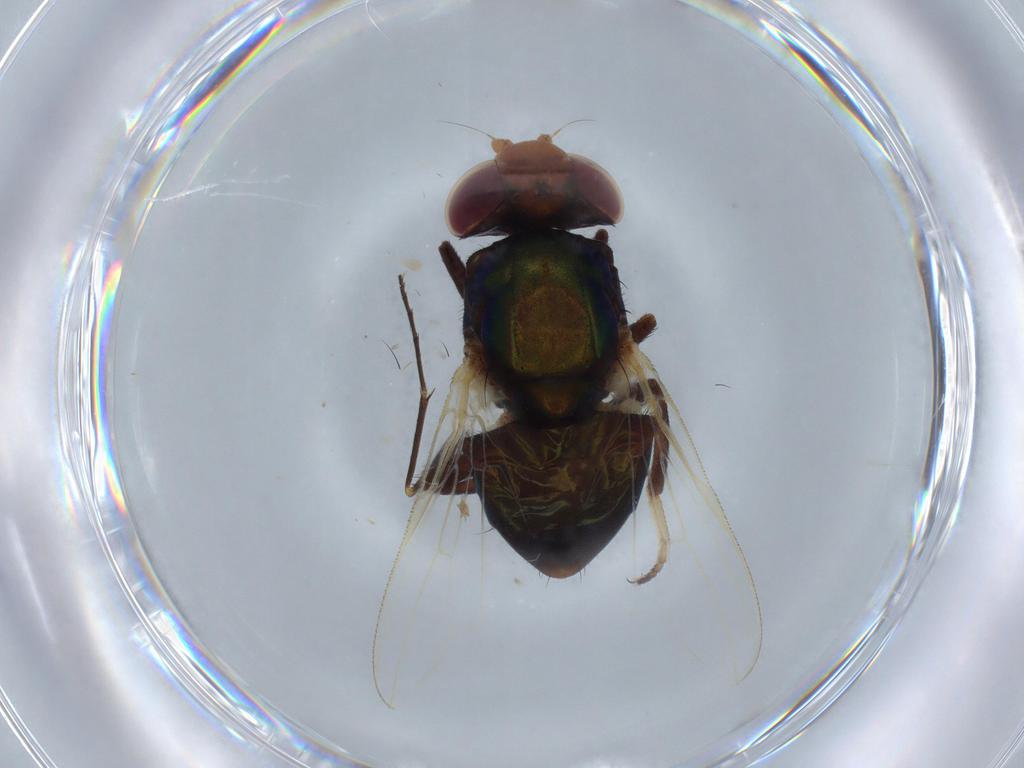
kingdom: Animalia
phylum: Arthropoda
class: Insecta
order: Diptera
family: Dolichopodidae
